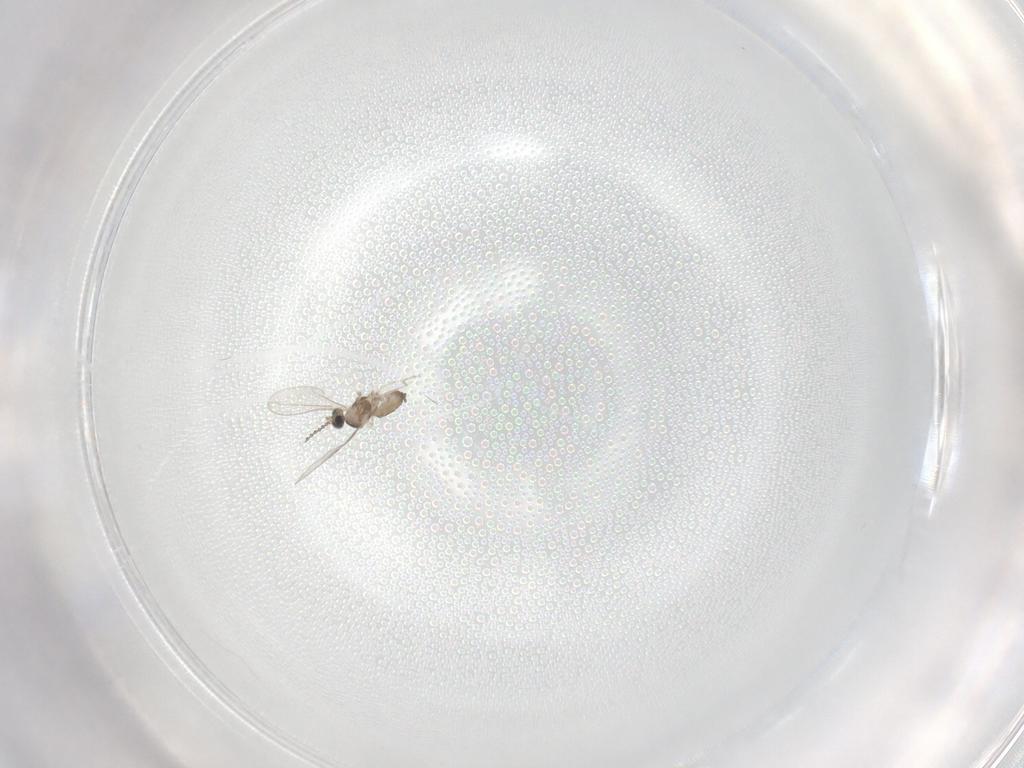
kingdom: Animalia
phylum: Arthropoda
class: Insecta
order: Diptera
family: Cecidomyiidae
